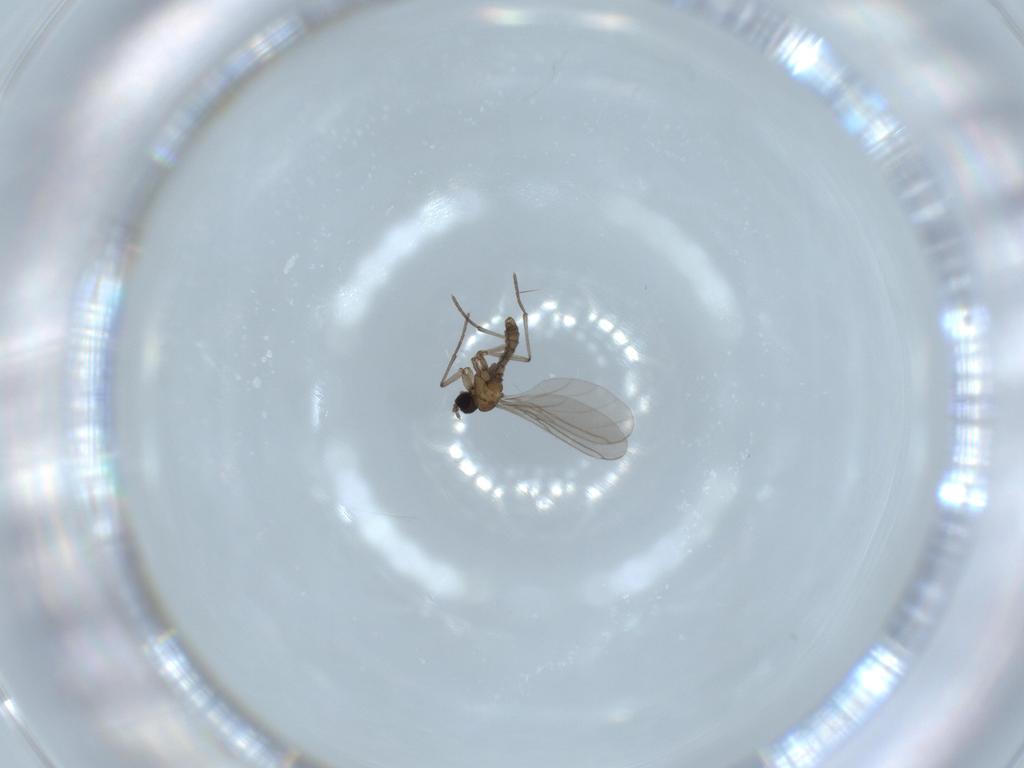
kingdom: Animalia
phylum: Arthropoda
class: Insecta
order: Diptera
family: Sciaridae
